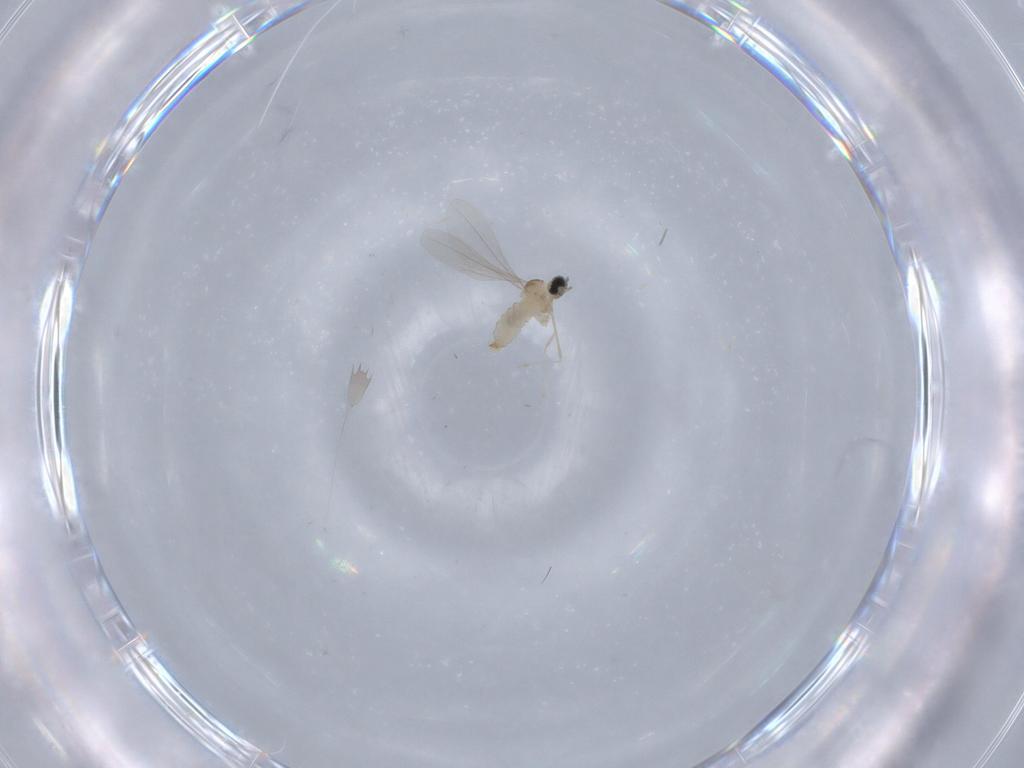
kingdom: Animalia
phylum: Arthropoda
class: Insecta
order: Diptera
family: Cecidomyiidae
